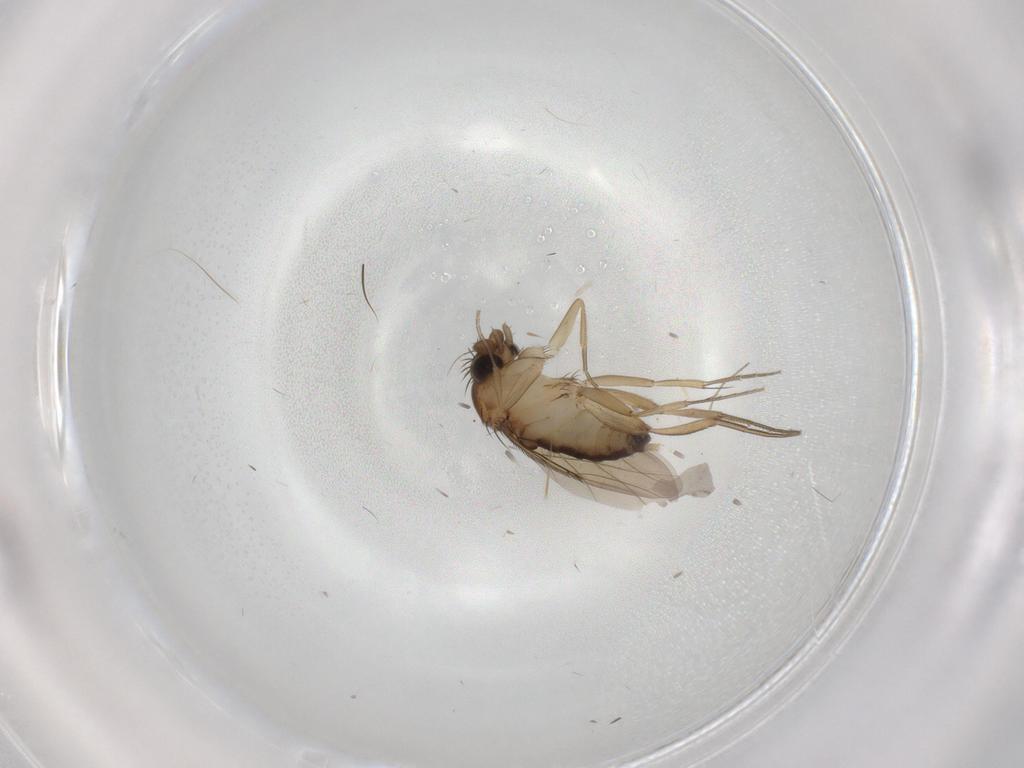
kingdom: Animalia
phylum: Arthropoda
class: Insecta
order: Diptera
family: Phoridae
